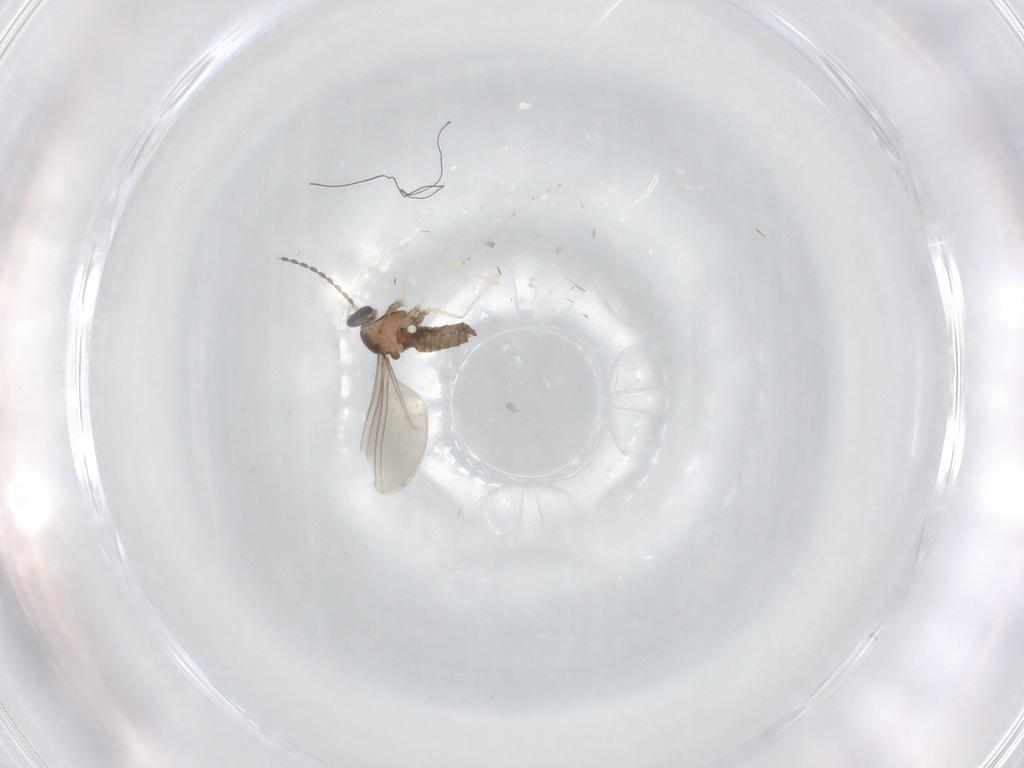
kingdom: Animalia
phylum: Arthropoda
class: Insecta
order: Diptera
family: Cecidomyiidae
